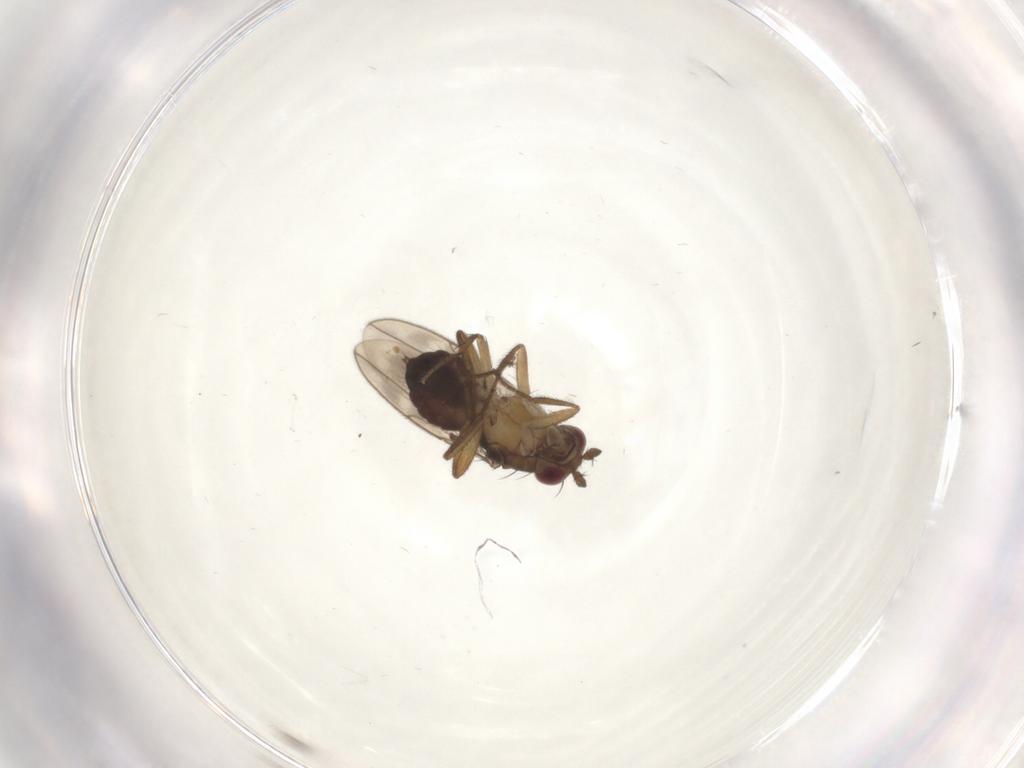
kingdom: Animalia
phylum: Arthropoda
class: Insecta
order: Diptera
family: Sphaeroceridae
